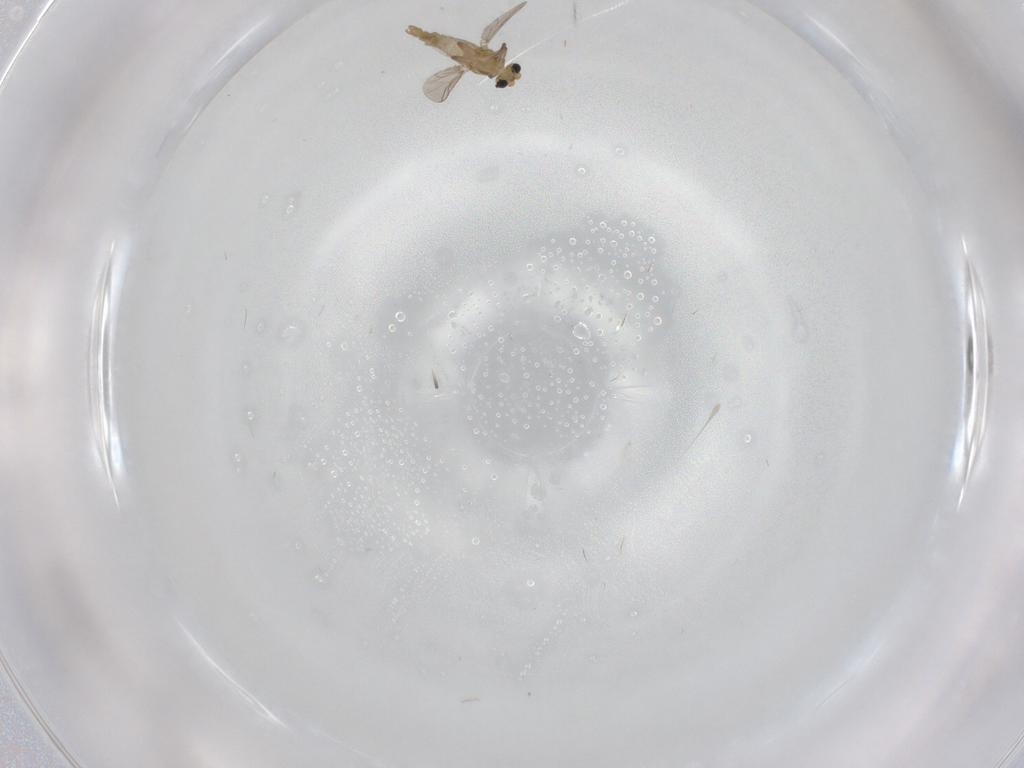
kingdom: Animalia
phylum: Arthropoda
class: Insecta
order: Diptera
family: Chironomidae
